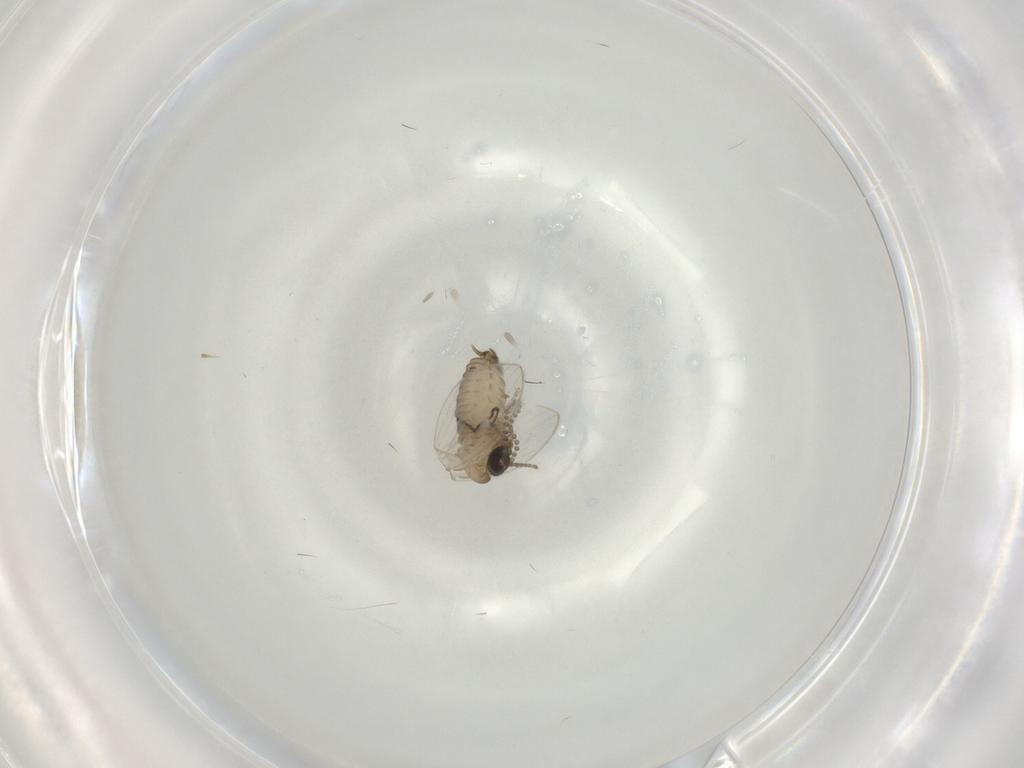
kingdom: Animalia
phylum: Arthropoda
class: Insecta
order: Diptera
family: Psychodidae
